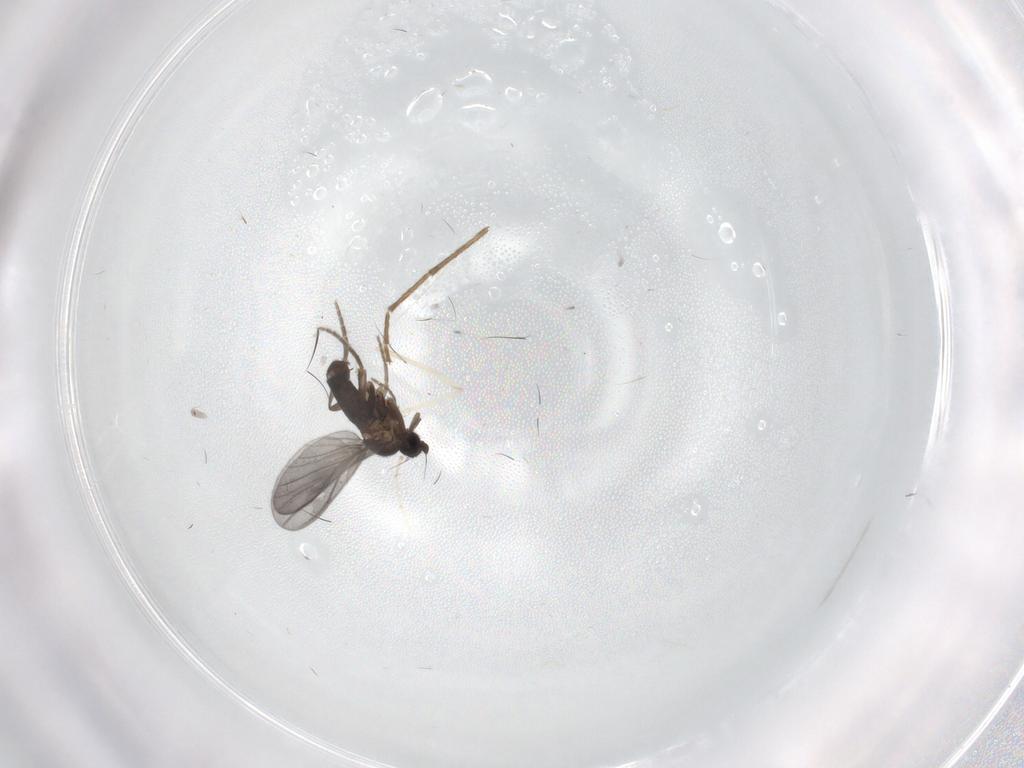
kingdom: Animalia
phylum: Arthropoda
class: Insecta
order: Diptera
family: Phoridae
